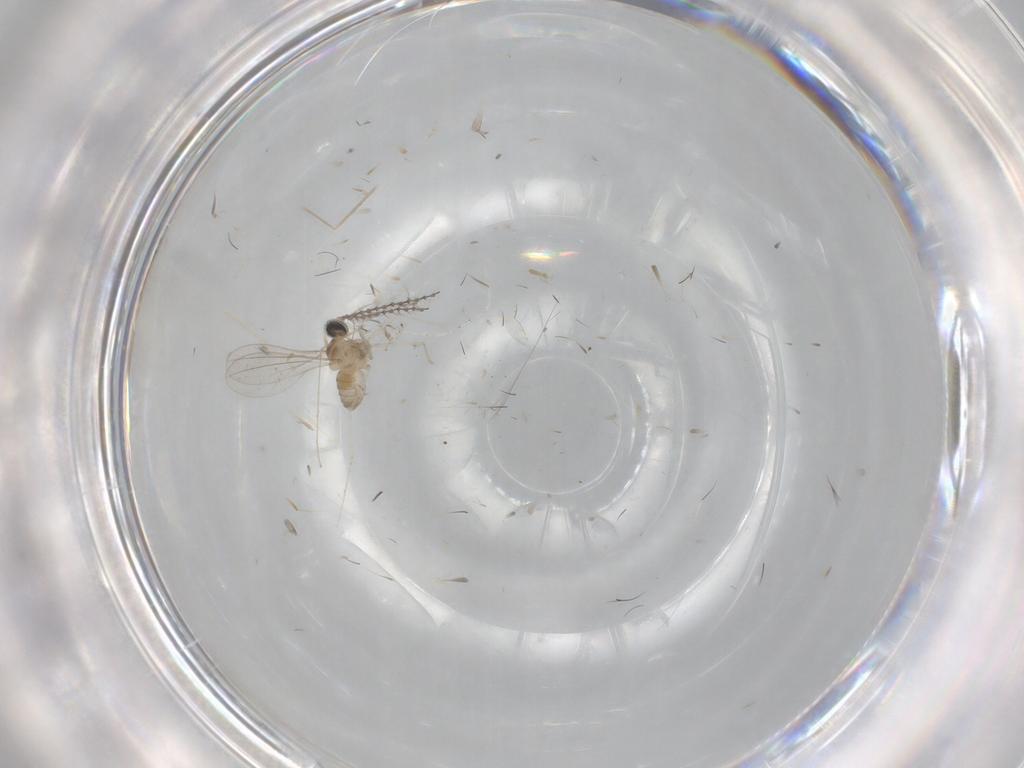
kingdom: Animalia
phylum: Arthropoda
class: Insecta
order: Diptera
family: Cecidomyiidae
